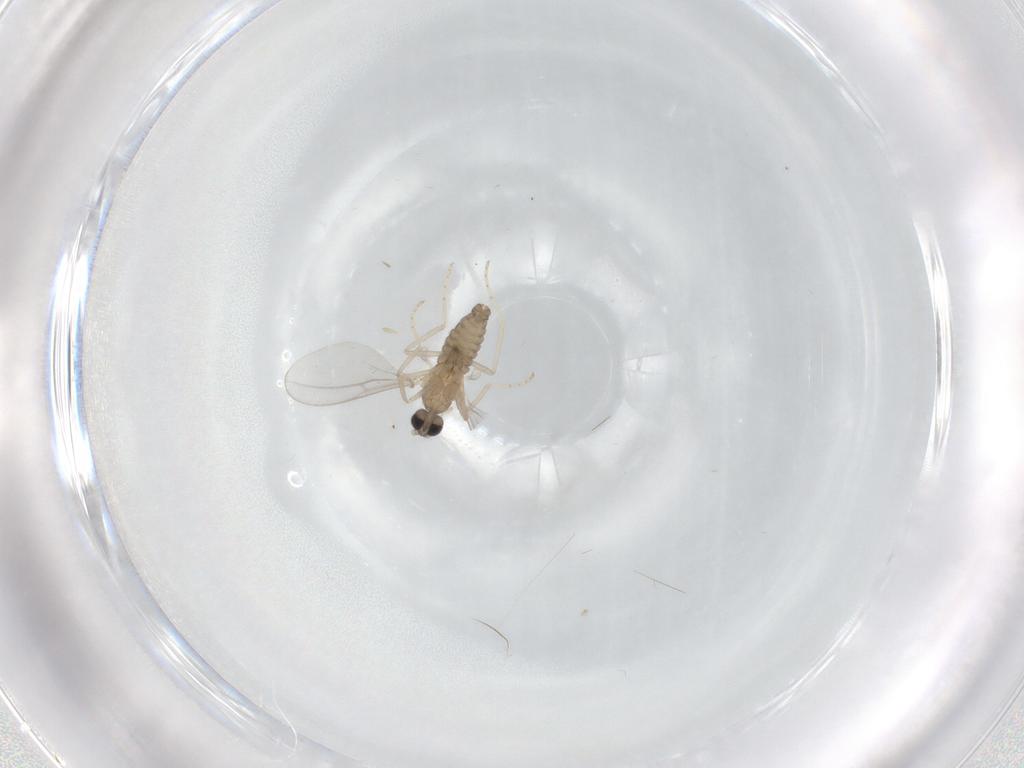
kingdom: Animalia
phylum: Arthropoda
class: Insecta
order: Diptera
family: Cecidomyiidae
